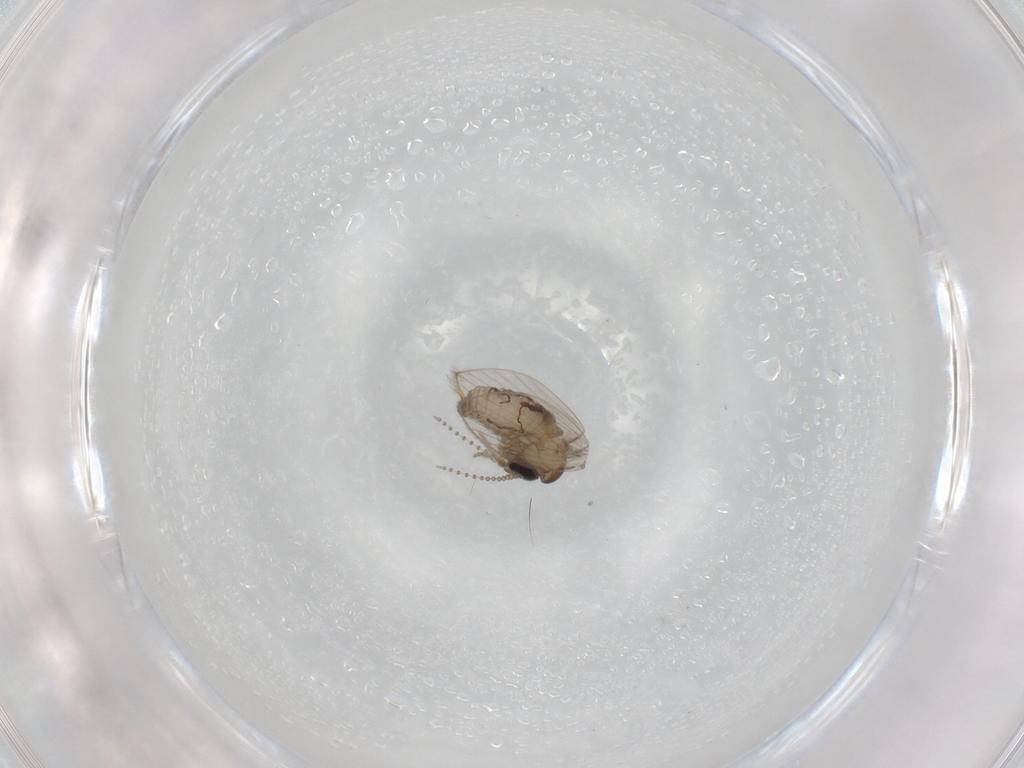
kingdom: Animalia
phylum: Arthropoda
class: Insecta
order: Diptera
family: Psychodidae
